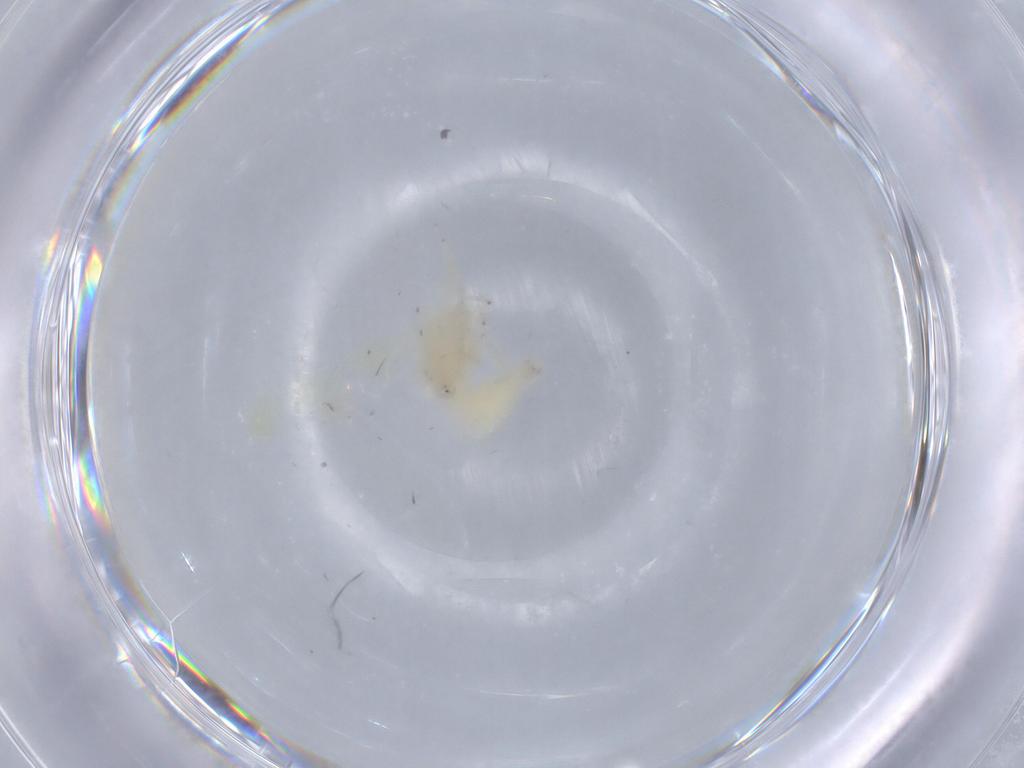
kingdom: Animalia
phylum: Arthropoda
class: Insecta
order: Hemiptera
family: Cicadellidae
